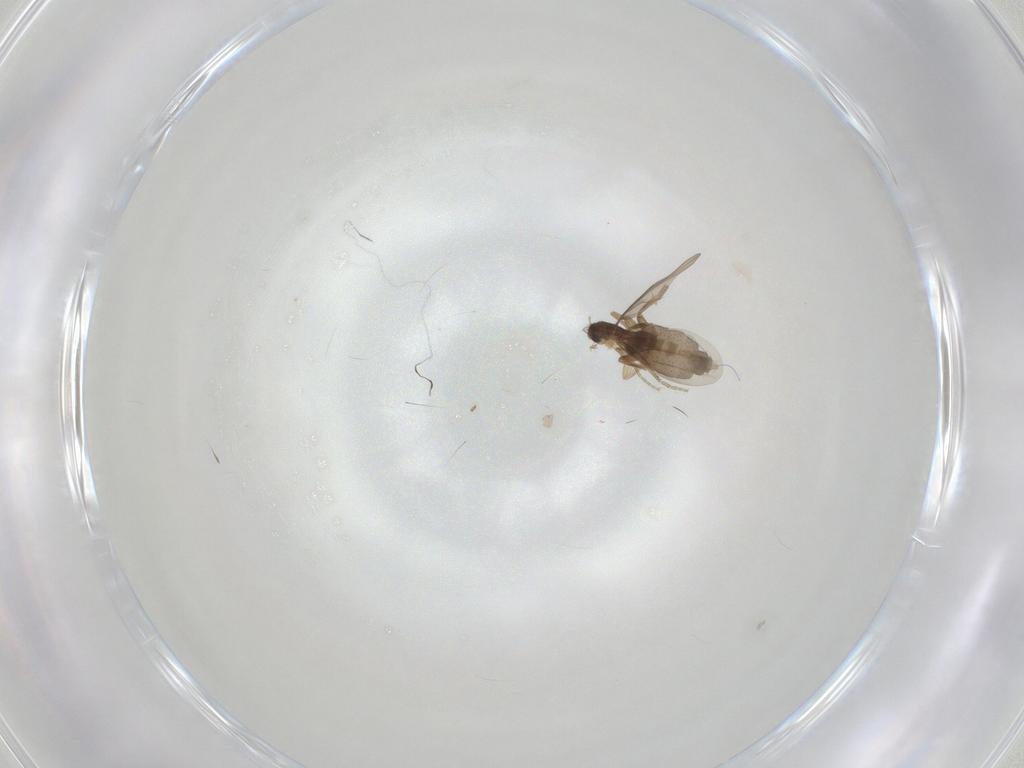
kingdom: Animalia
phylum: Arthropoda
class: Insecta
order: Diptera
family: Phoridae
